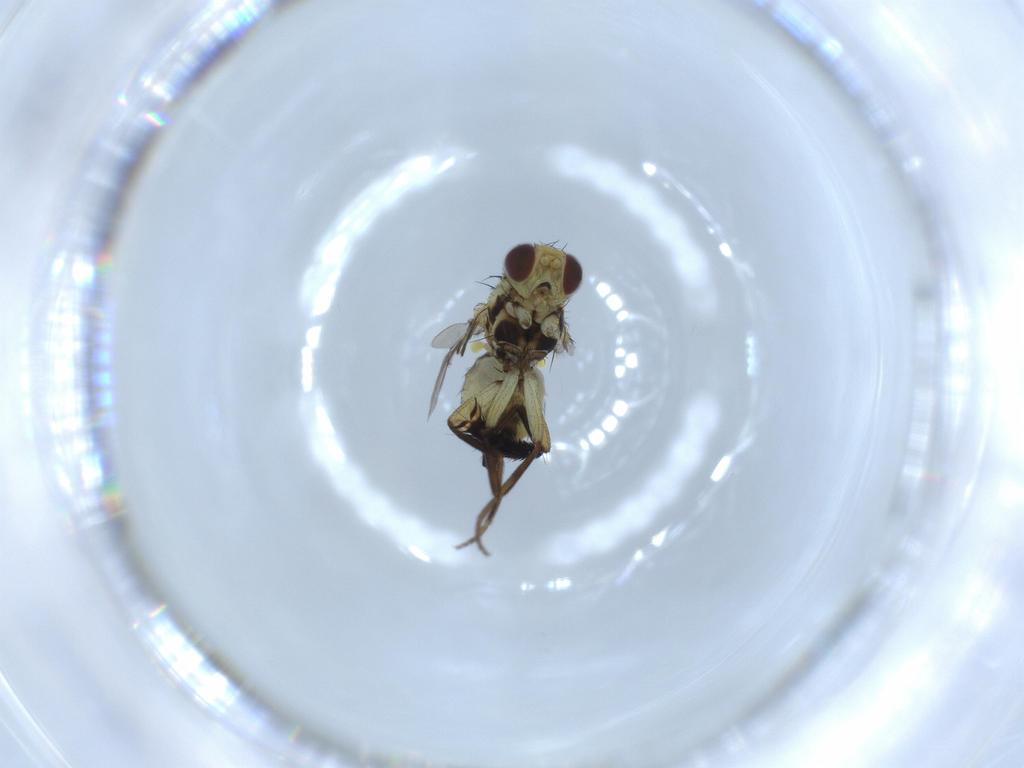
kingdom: Animalia
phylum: Arthropoda
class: Insecta
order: Diptera
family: Agromyzidae
